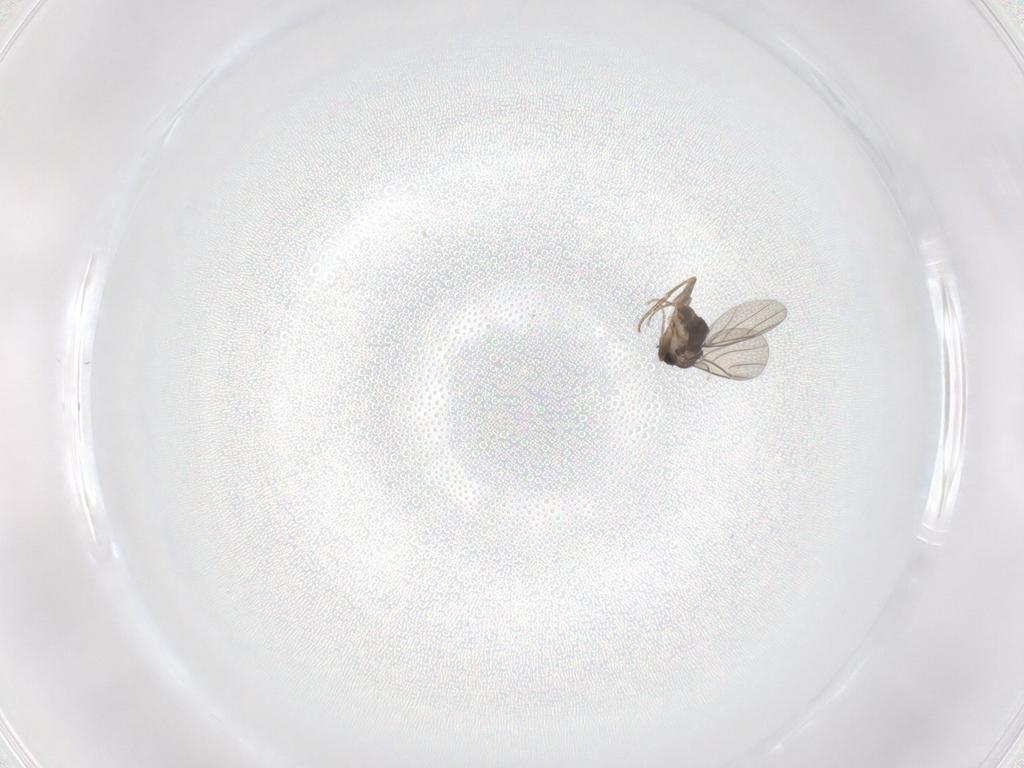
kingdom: Animalia
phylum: Arthropoda
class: Insecta
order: Diptera
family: Phoridae
